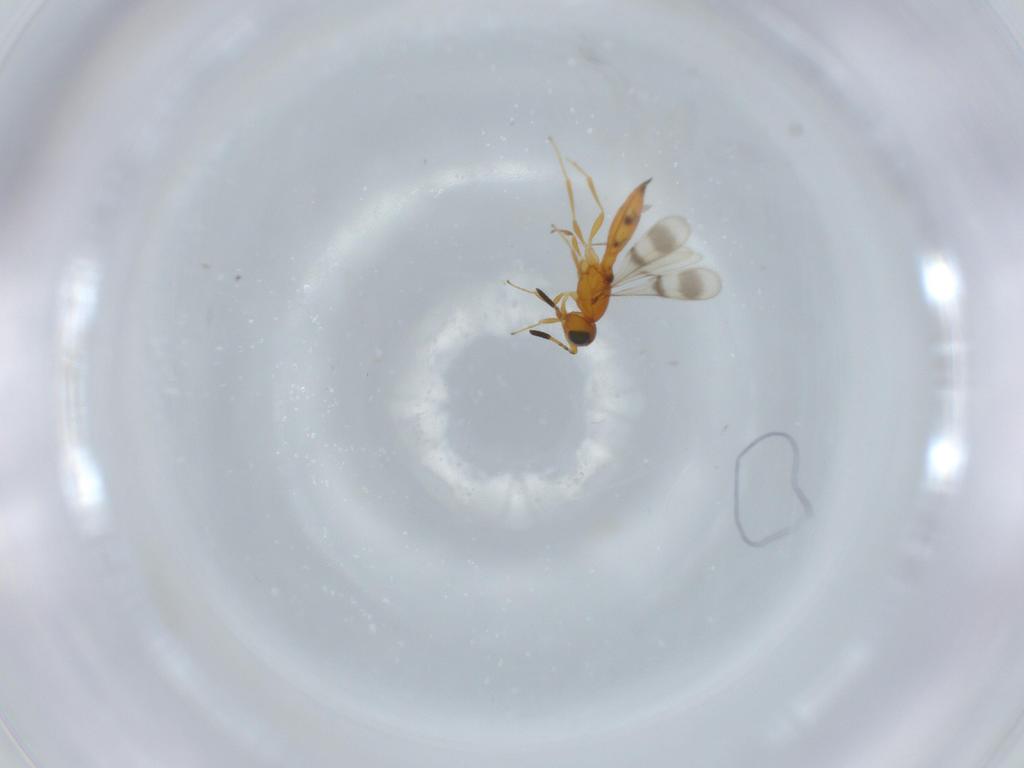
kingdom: Animalia
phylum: Arthropoda
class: Insecta
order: Hymenoptera
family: Scelionidae
